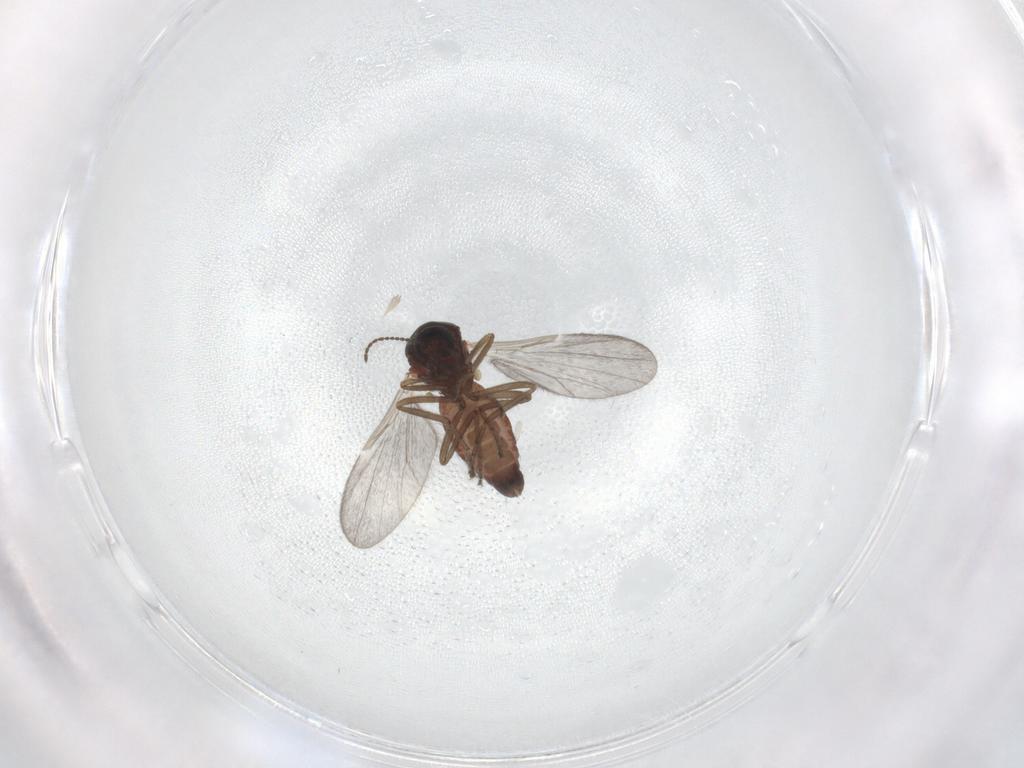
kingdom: Animalia
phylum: Arthropoda
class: Insecta
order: Diptera
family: Ceratopogonidae
